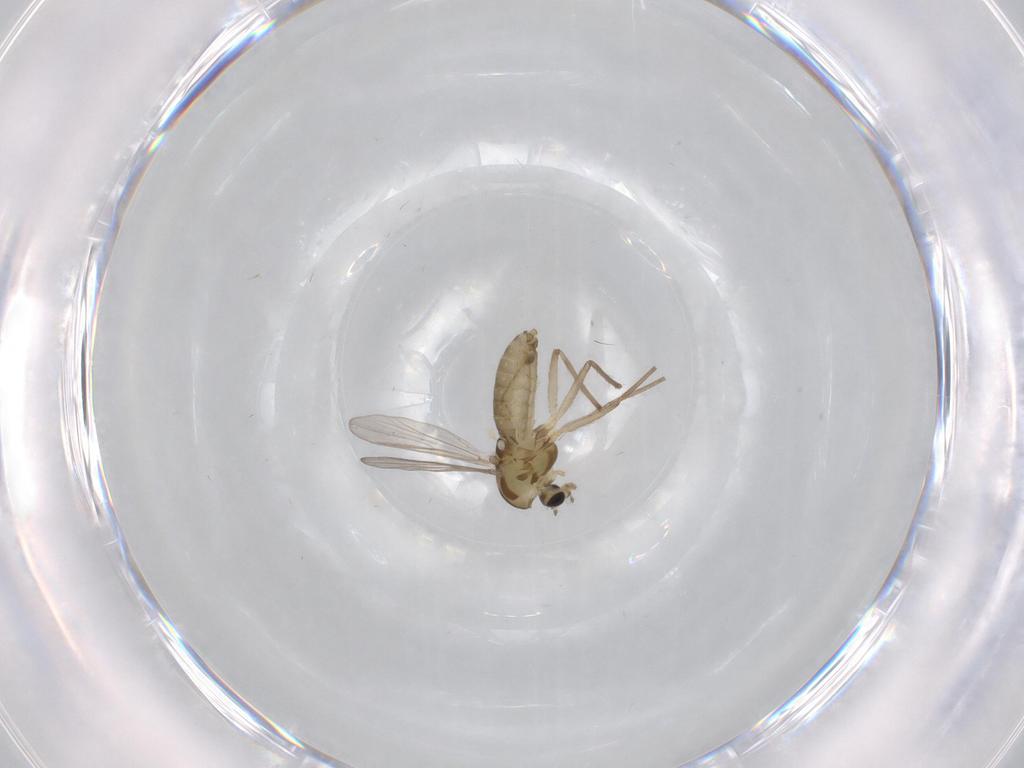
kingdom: Animalia
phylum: Arthropoda
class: Insecta
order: Diptera
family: Chironomidae
